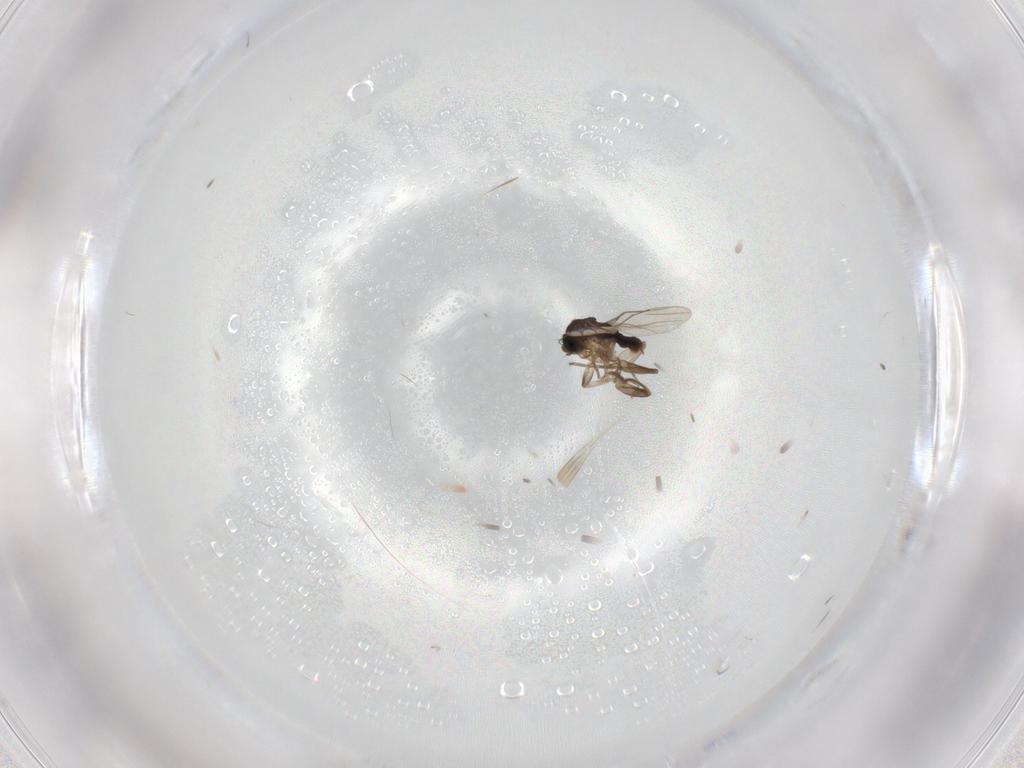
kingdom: Animalia
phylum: Arthropoda
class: Insecta
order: Diptera
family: Phoridae
